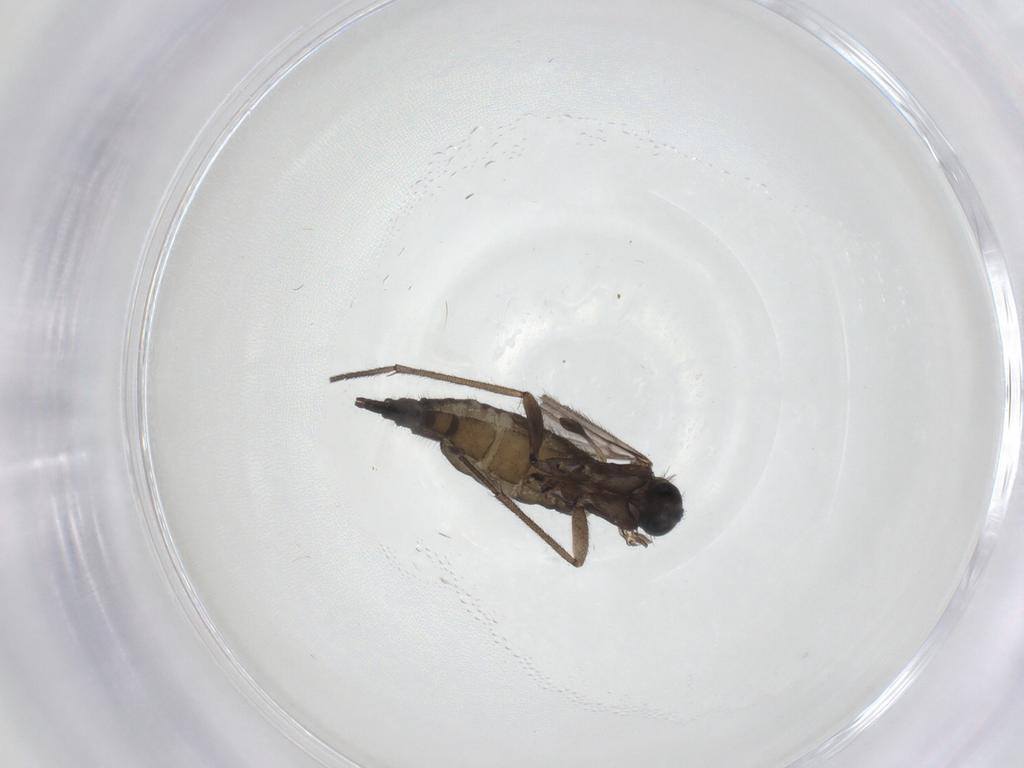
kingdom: Animalia
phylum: Arthropoda
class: Insecta
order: Diptera
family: Sciaridae
